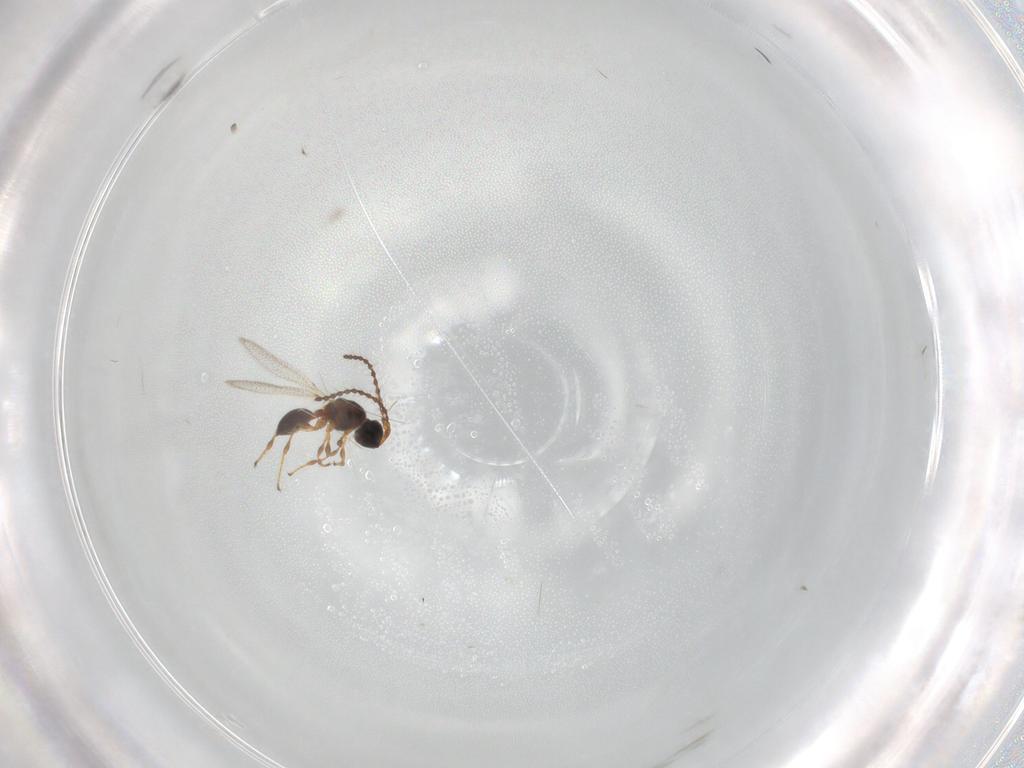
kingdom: Animalia
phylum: Arthropoda
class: Insecta
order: Hymenoptera
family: Diapriidae
